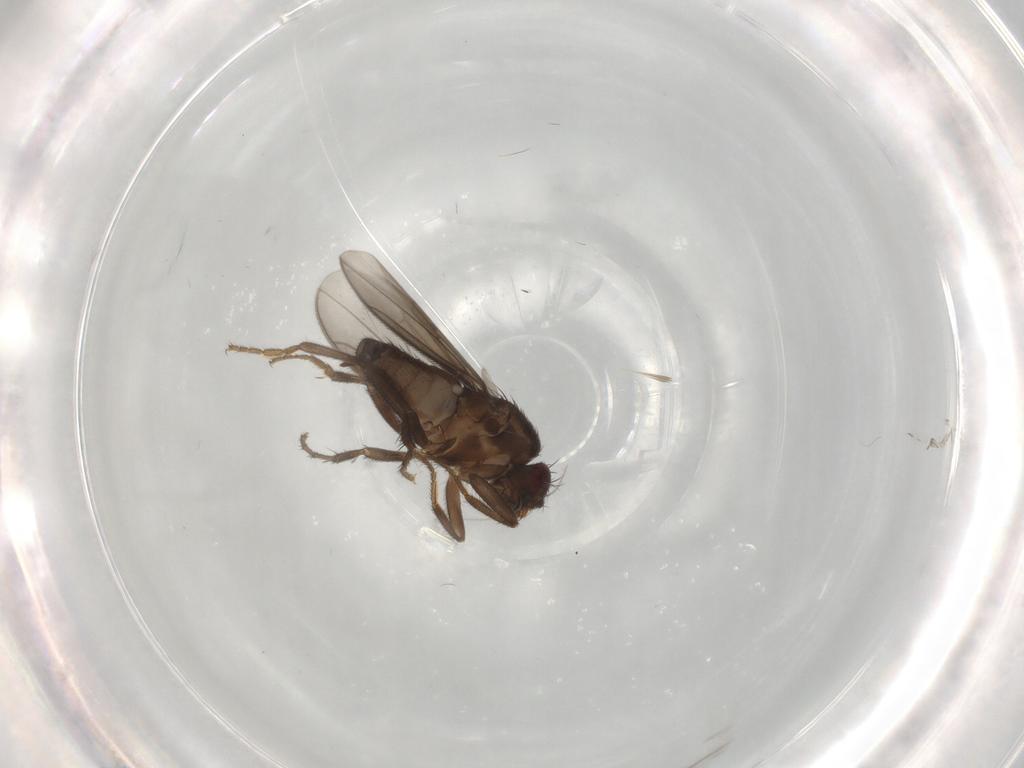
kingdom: Animalia
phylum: Arthropoda
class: Insecta
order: Diptera
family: Sphaeroceridae
